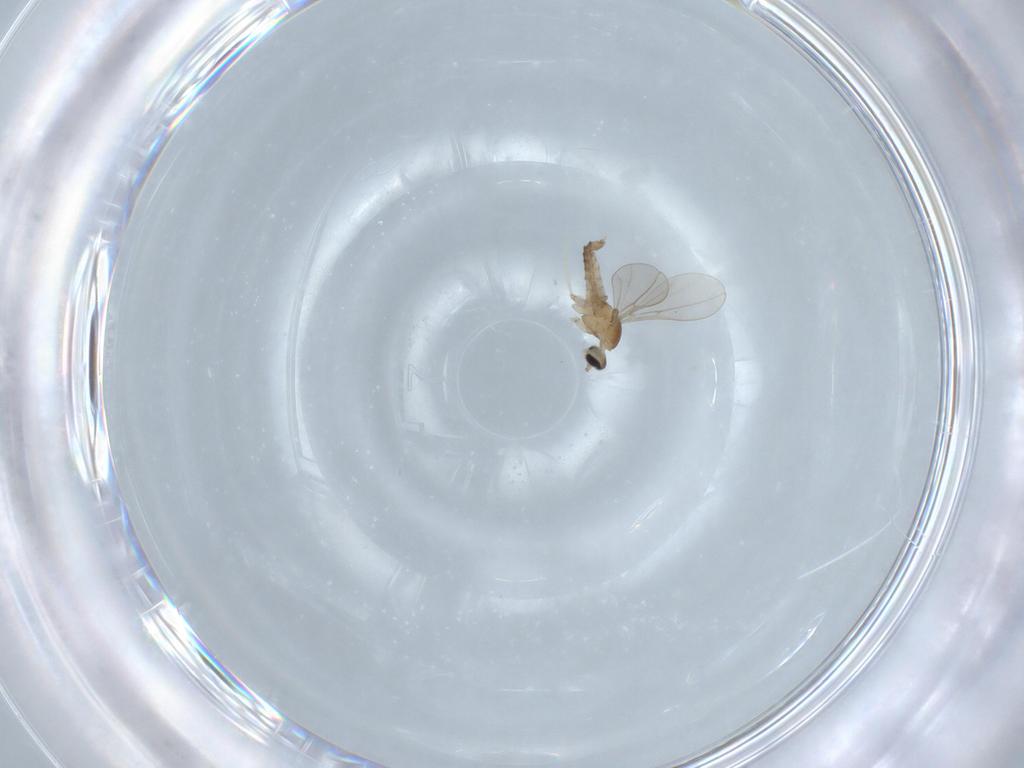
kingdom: Animalia
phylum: Arthropoda
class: Insecta
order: Diptera
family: Cecidomyiidae
